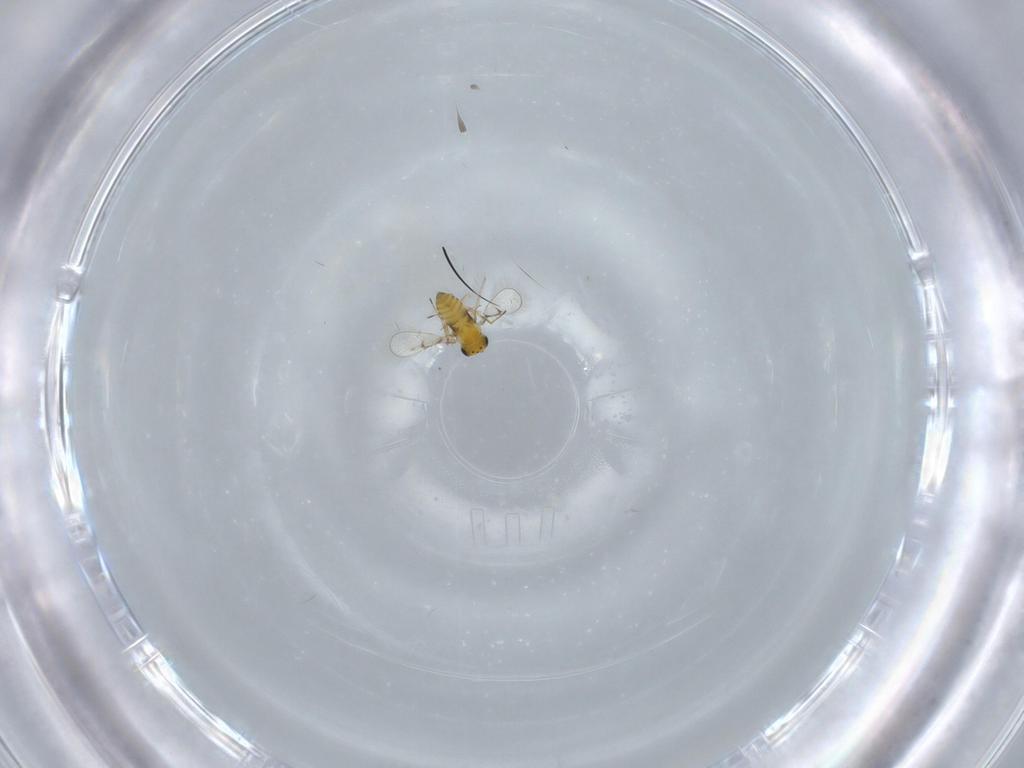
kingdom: Animalia
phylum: Arthropoda
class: Insecta
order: Hymenoptera
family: Trichogrammatidae
